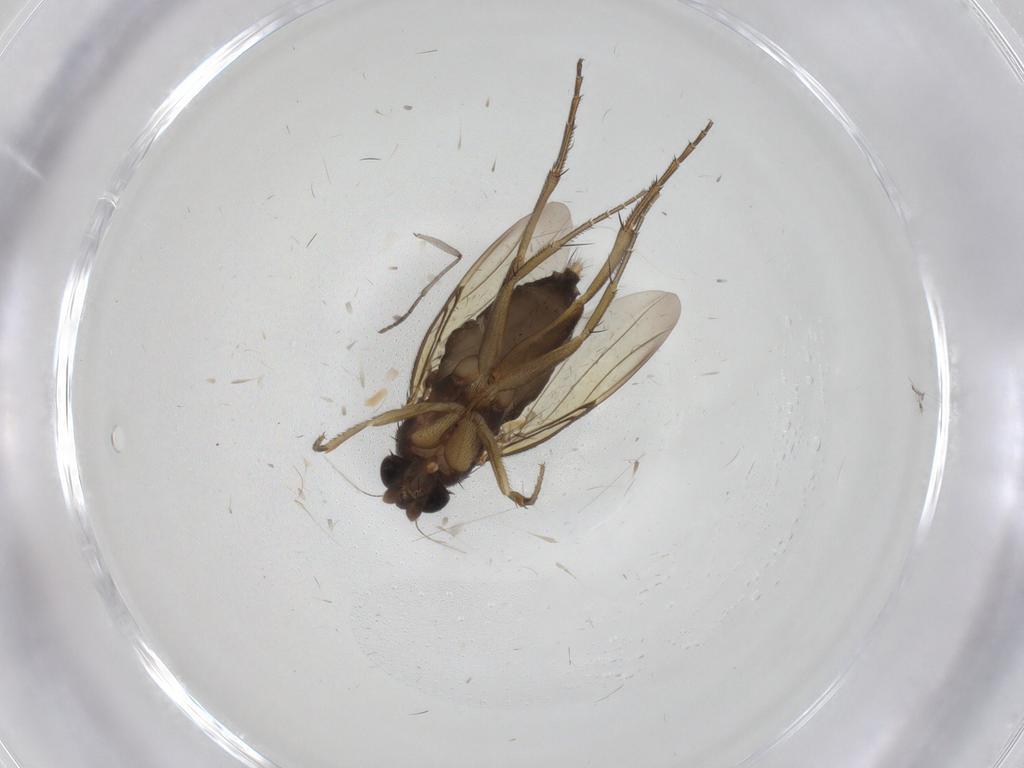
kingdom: Animalia
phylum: Arthropoda
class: Insecta
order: Diptera
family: Phoridae
